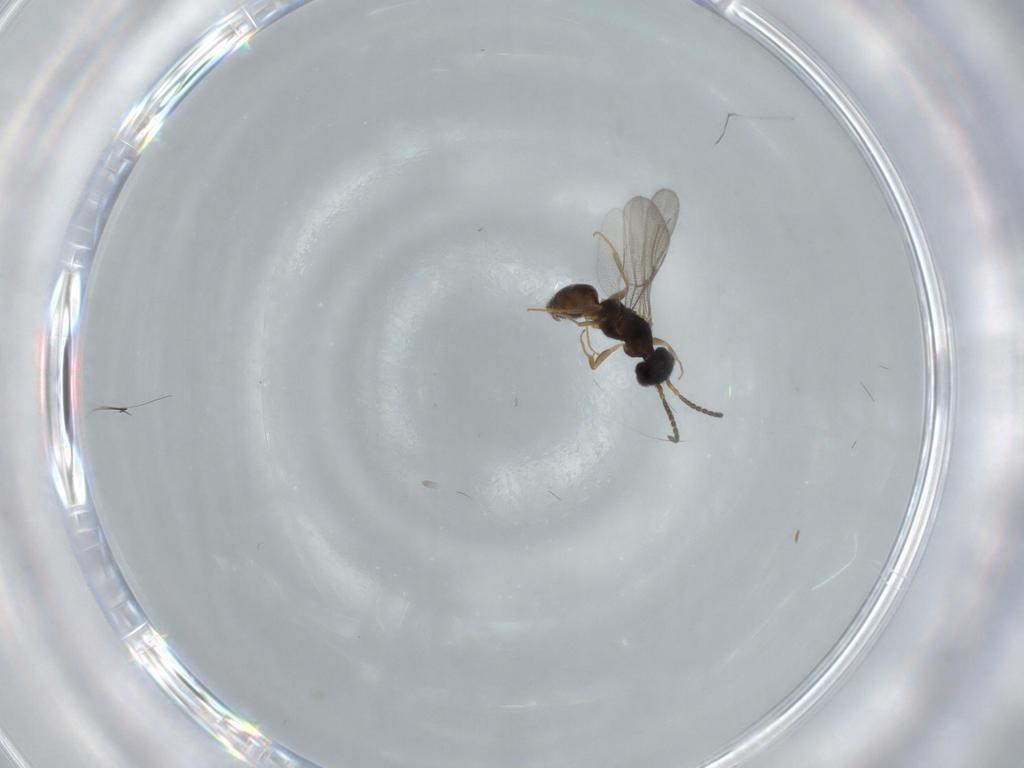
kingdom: Animalia
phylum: Arthropoda
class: Insecta
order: Hymenoptera
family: Bethylidae
